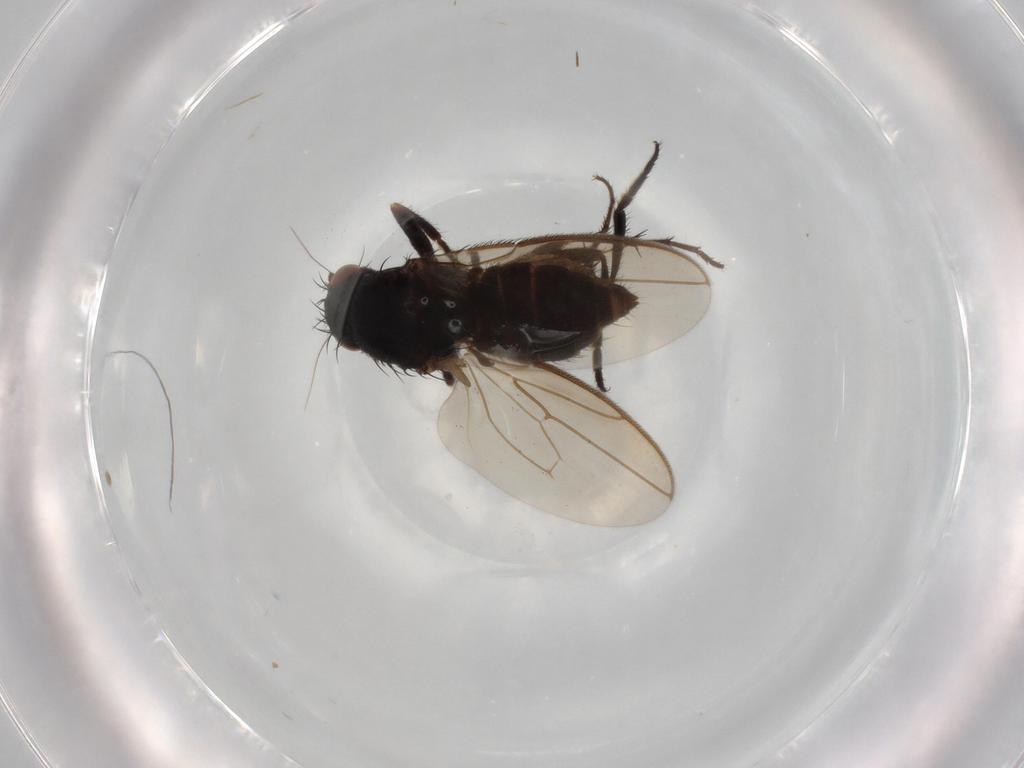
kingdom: Animalia
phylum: Arthropoda
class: Insecta
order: Diptera
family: Sphaeroceridae
